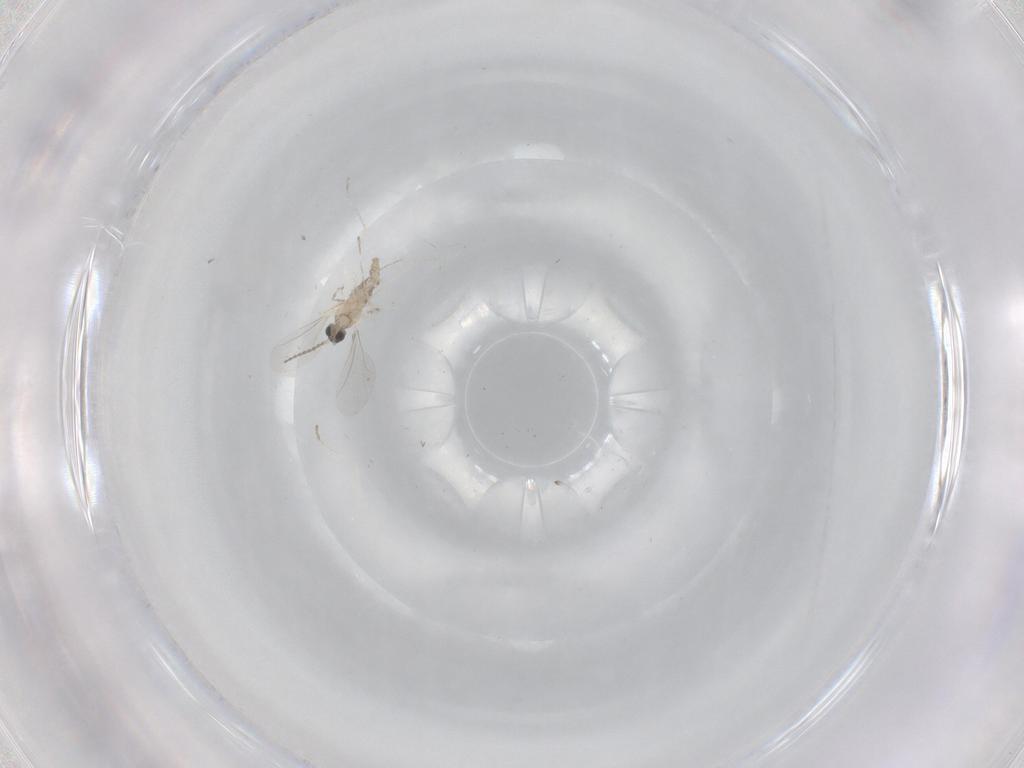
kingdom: Animalia
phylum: Arthropoda
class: Insecta
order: Diptera
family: Cecidomyiidae
